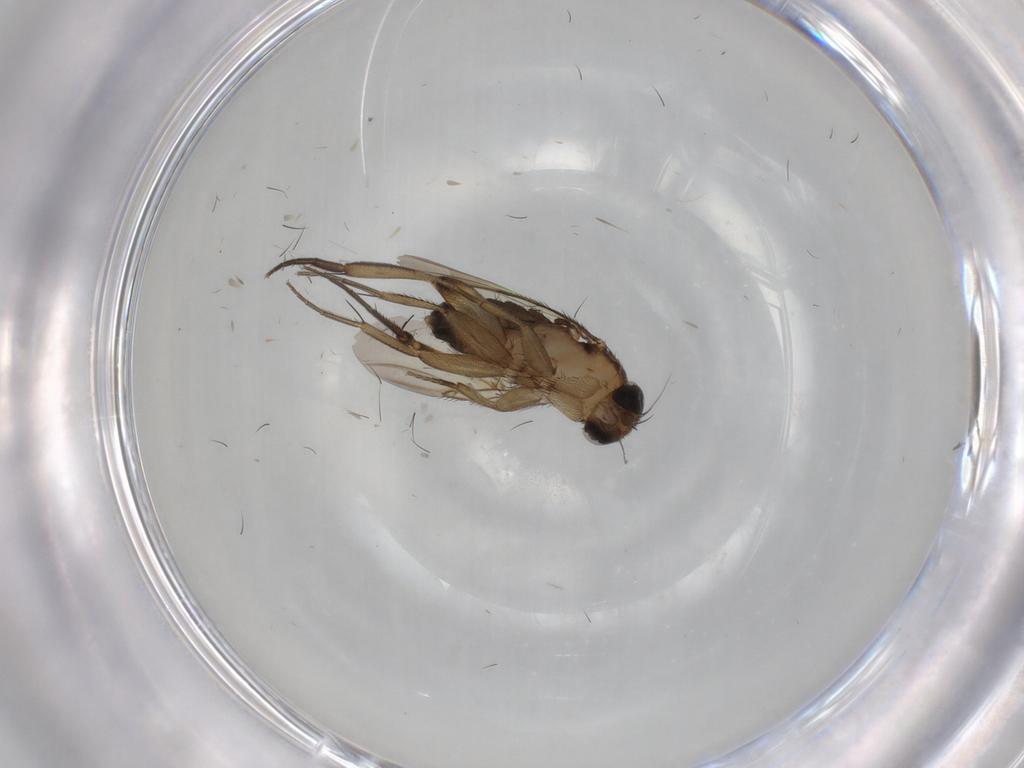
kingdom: Animalia
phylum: Arthropoda
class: Insecta
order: Diptera
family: Phoridae
